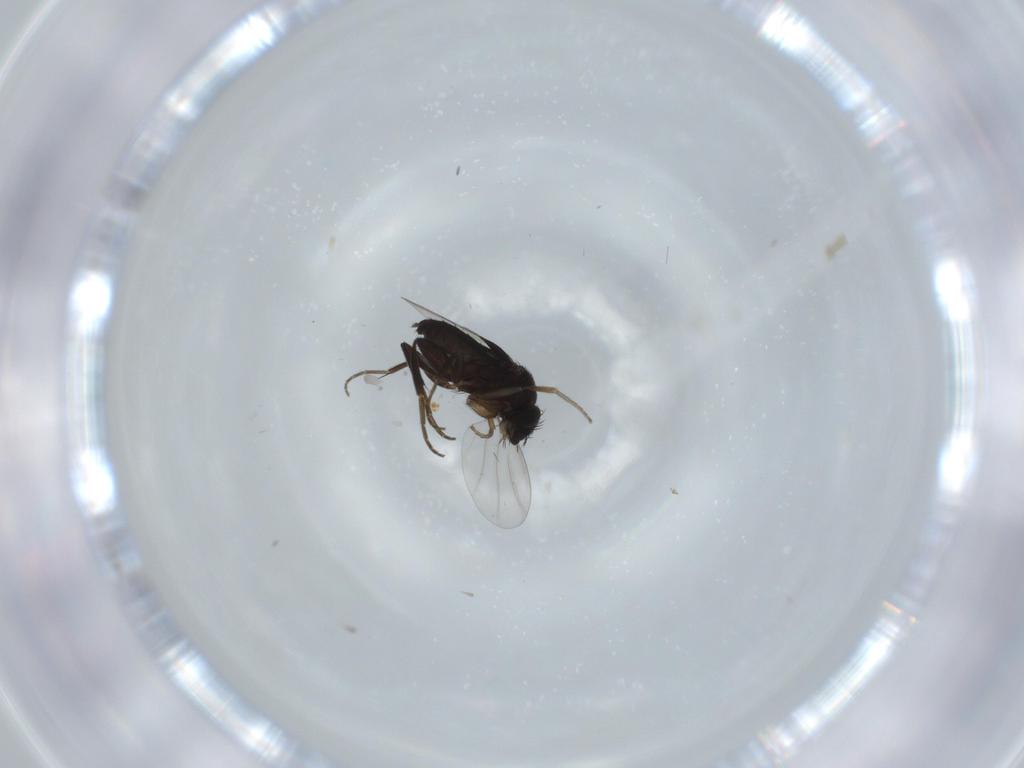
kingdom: Animalia
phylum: Arthropoda
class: Insecta
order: Diptera
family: Phoridae
